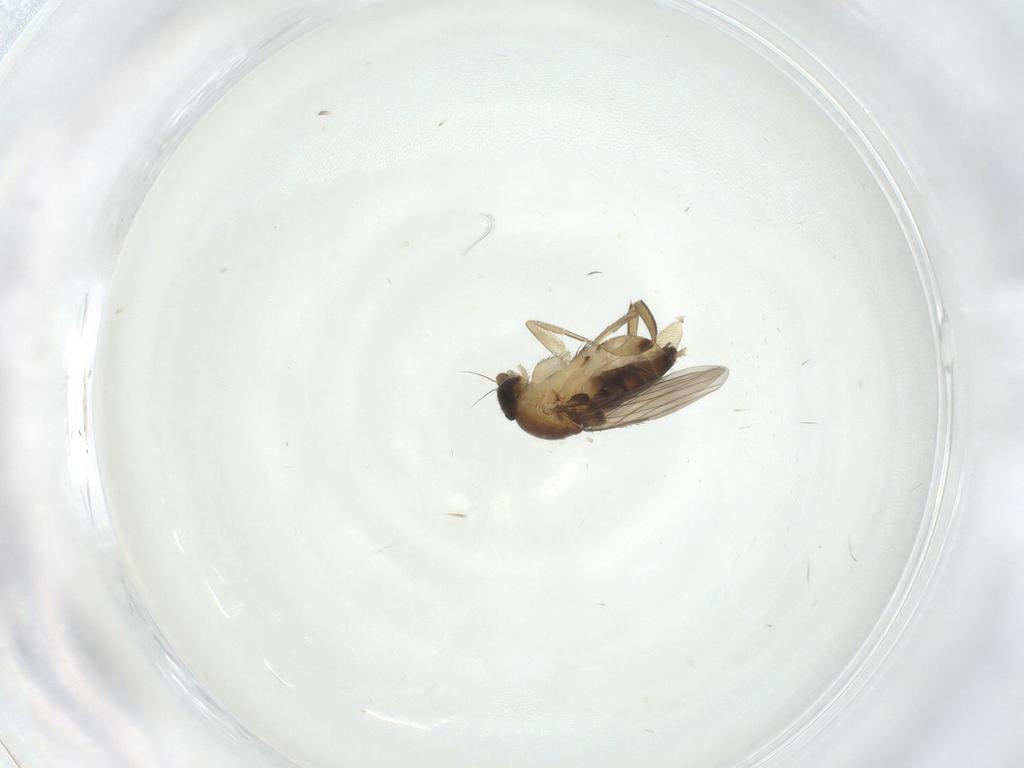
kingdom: Animalia
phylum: Arthropoda
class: Insecta
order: Diptera
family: Phoridae
